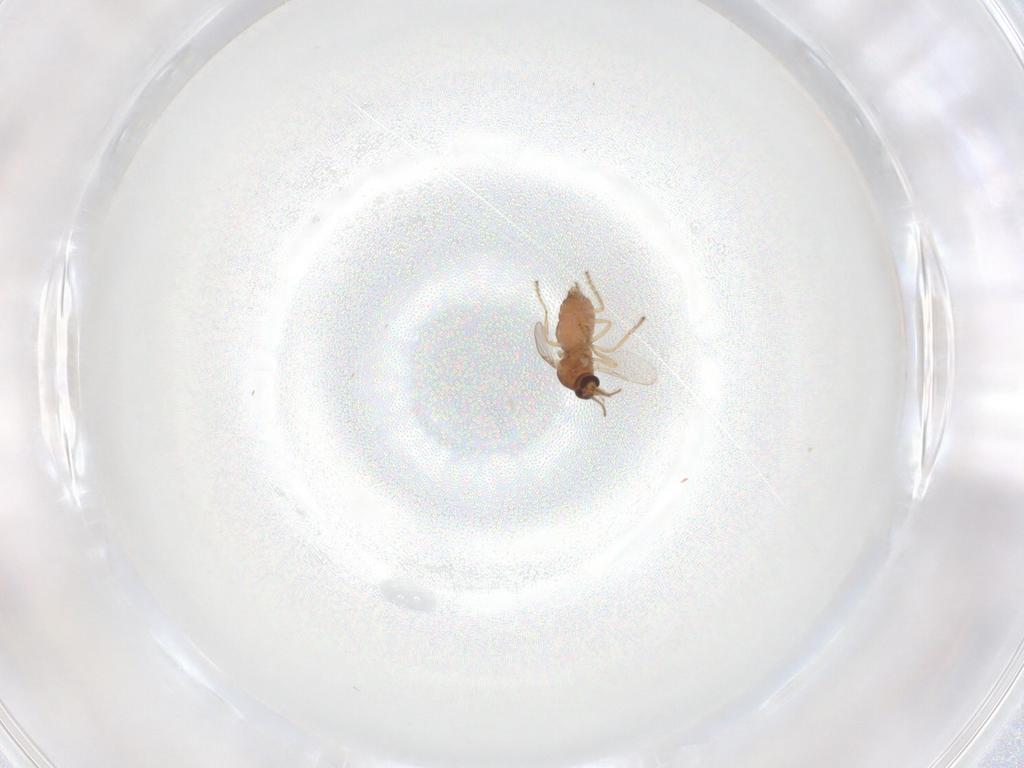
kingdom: Animalia
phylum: Arthropoda
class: Insecta
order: Diptera
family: Ceratopogonidae
